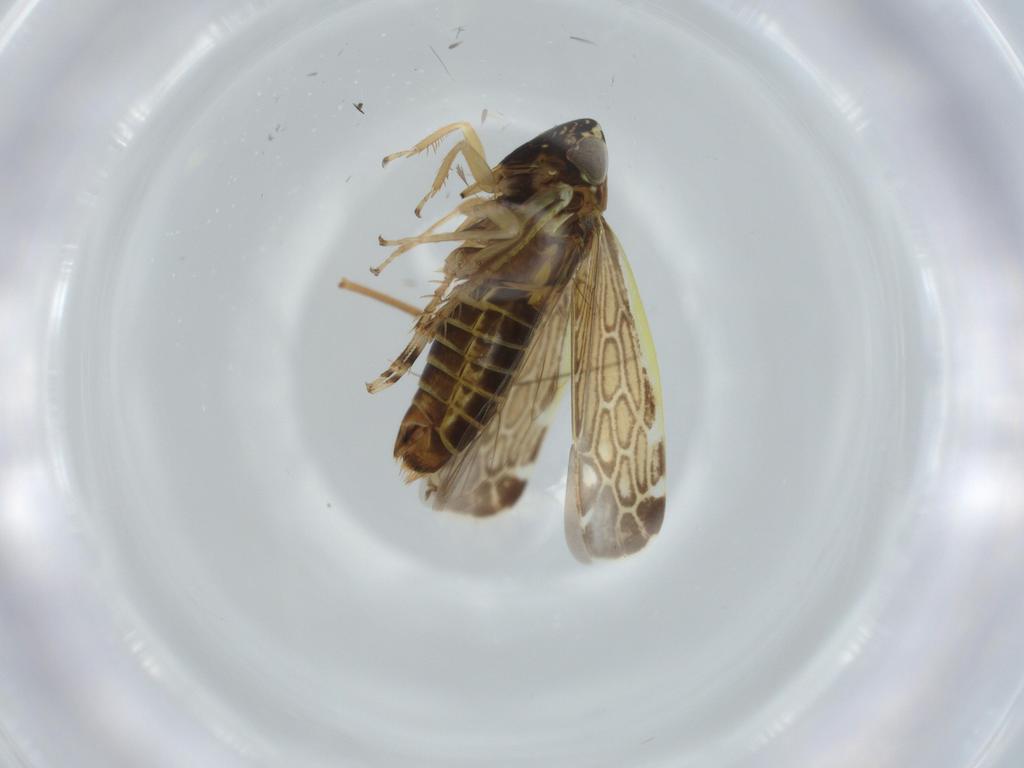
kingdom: Animalia
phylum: Arthropoda
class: Insecta
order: Hemiptera
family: Cicadellidae
